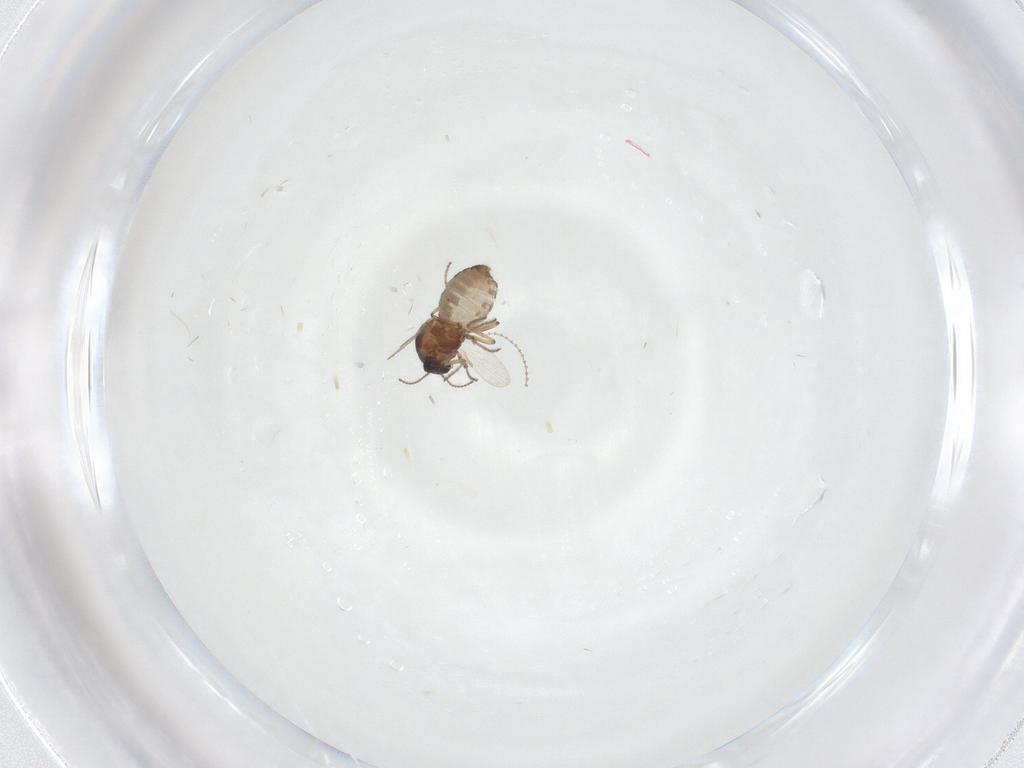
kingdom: Animalia
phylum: Arthropoda
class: Insecta
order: Diptera
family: Ceratopogonidae
